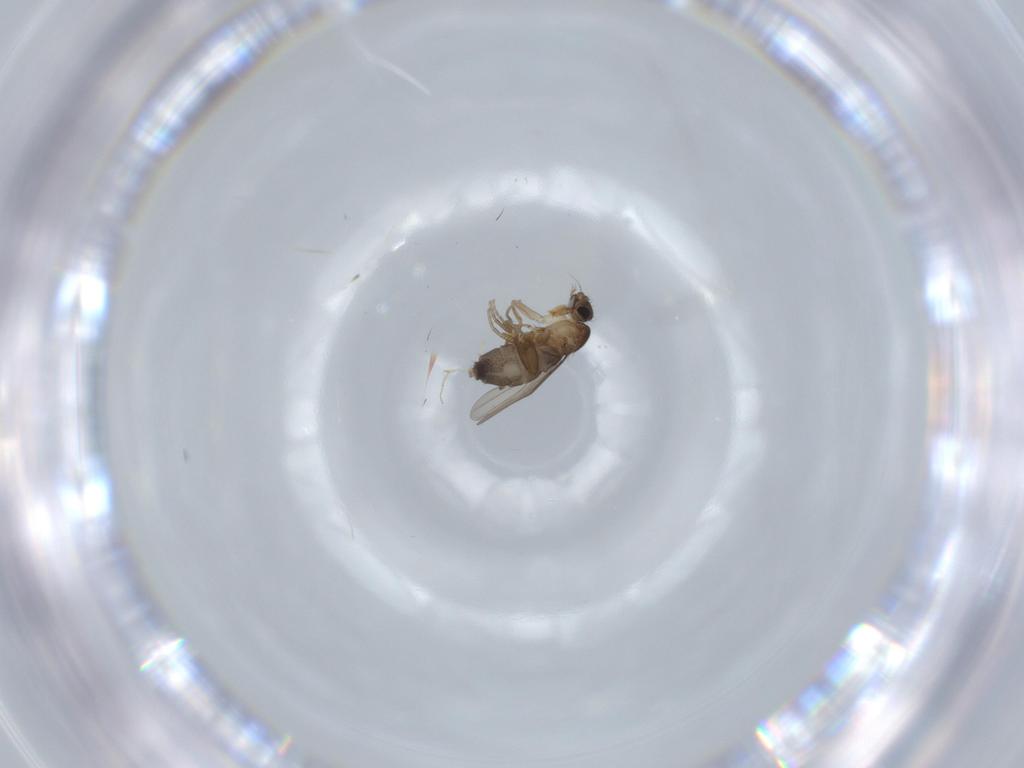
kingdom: Animalia
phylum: Arthropoda
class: Insecta
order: Diptera
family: Phoridae
